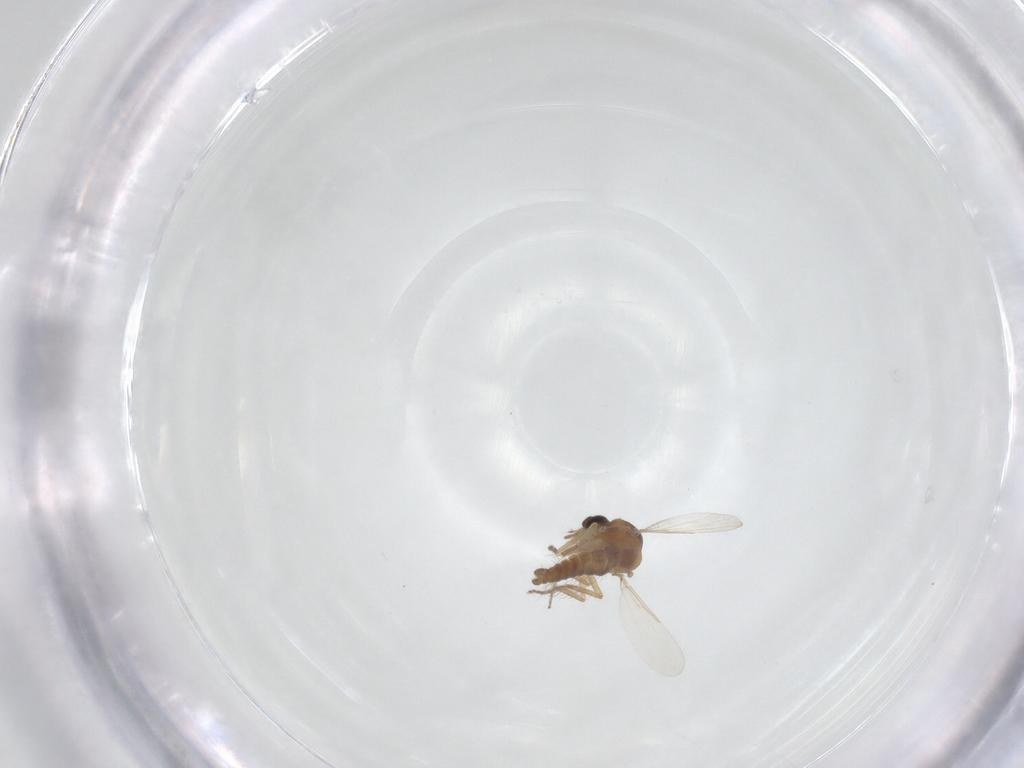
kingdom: Animalia
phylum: Arthropoda
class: Insecta
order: Diptera
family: Ceratopogonidae
